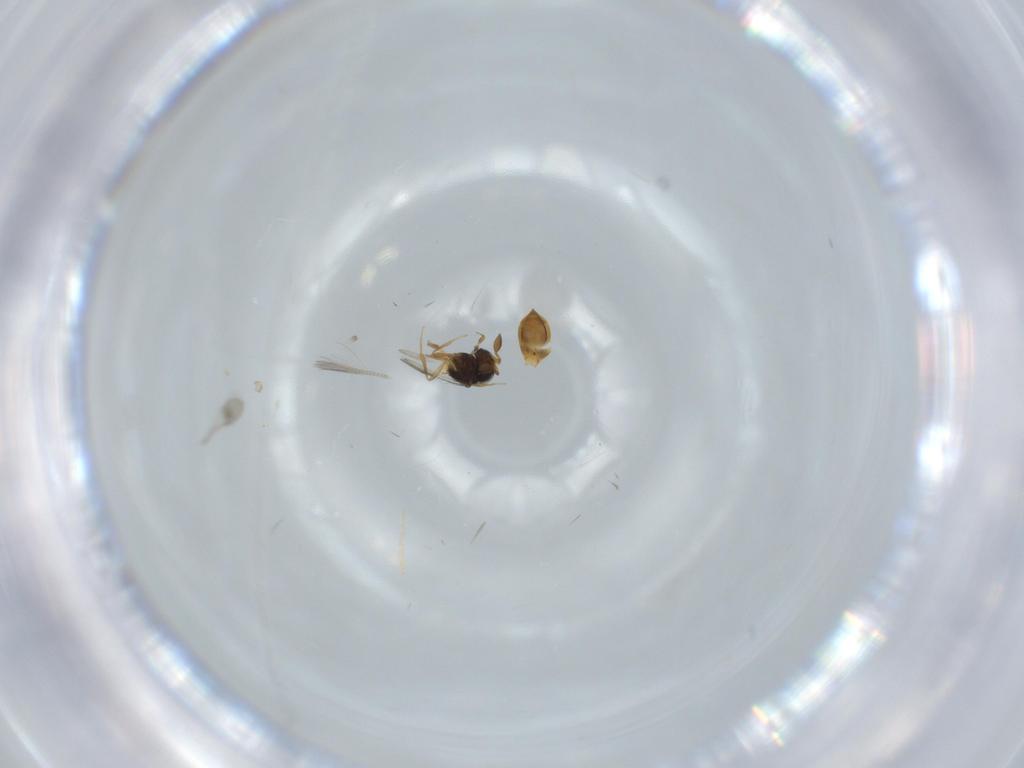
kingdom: Animalia
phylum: Arthropoda
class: Insecta
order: Hymenoptera
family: Scelionidae
